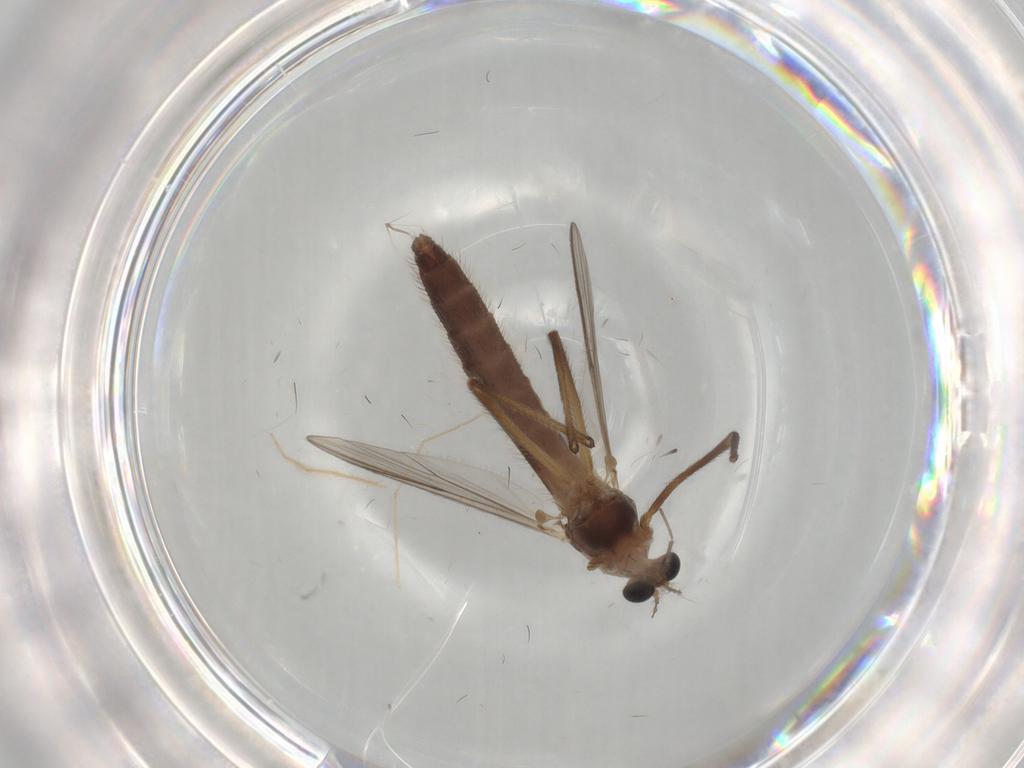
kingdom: Animalia
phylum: Arthropoda
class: Insecta
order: Diptera
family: Chironomidae
